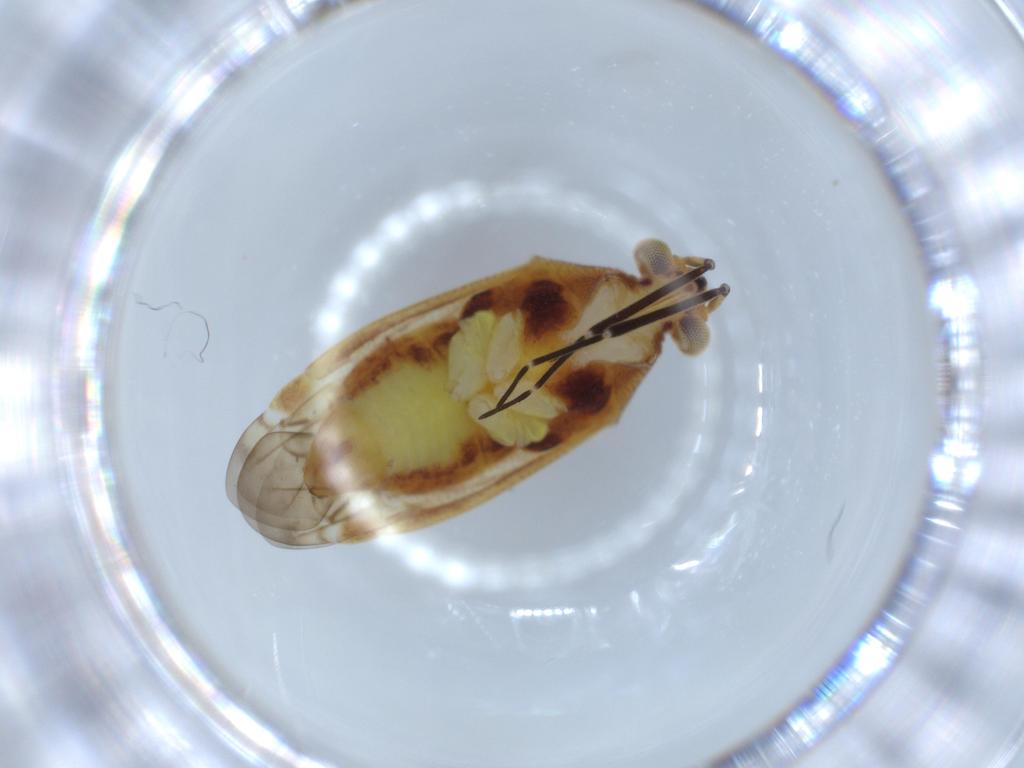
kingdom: Animalia
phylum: Arthropoda
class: Insecta
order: Hemiptera
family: Miridae
